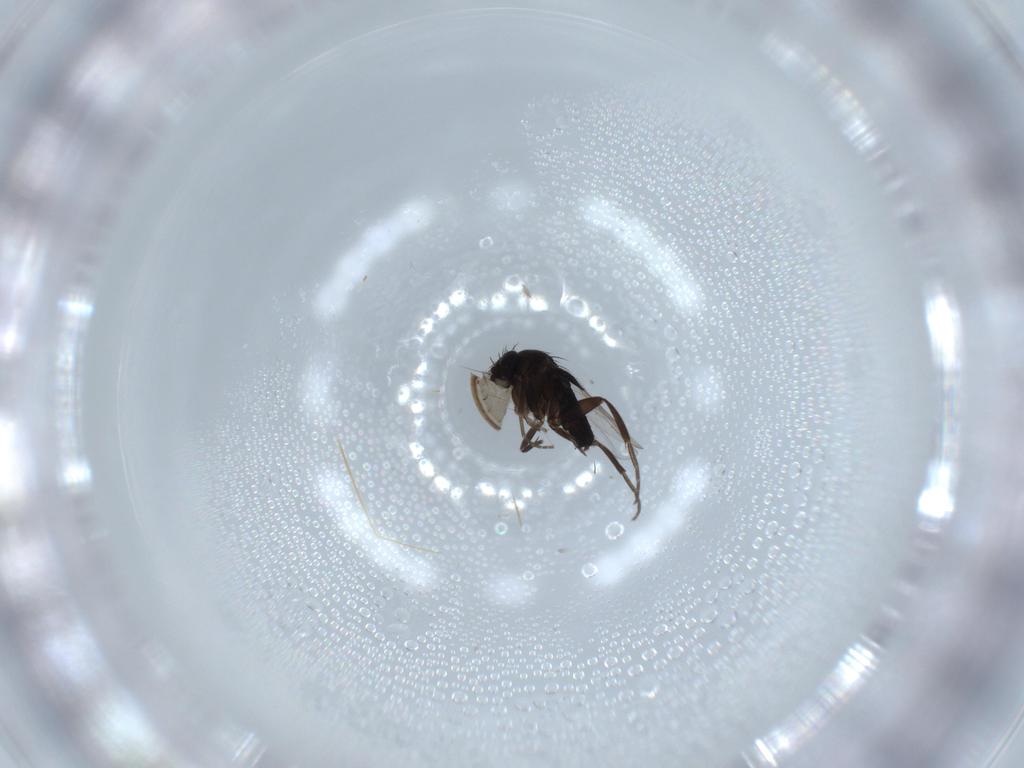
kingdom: Animalia
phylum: Arthropoda
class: Insecta
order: Diptera
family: Phoridae
